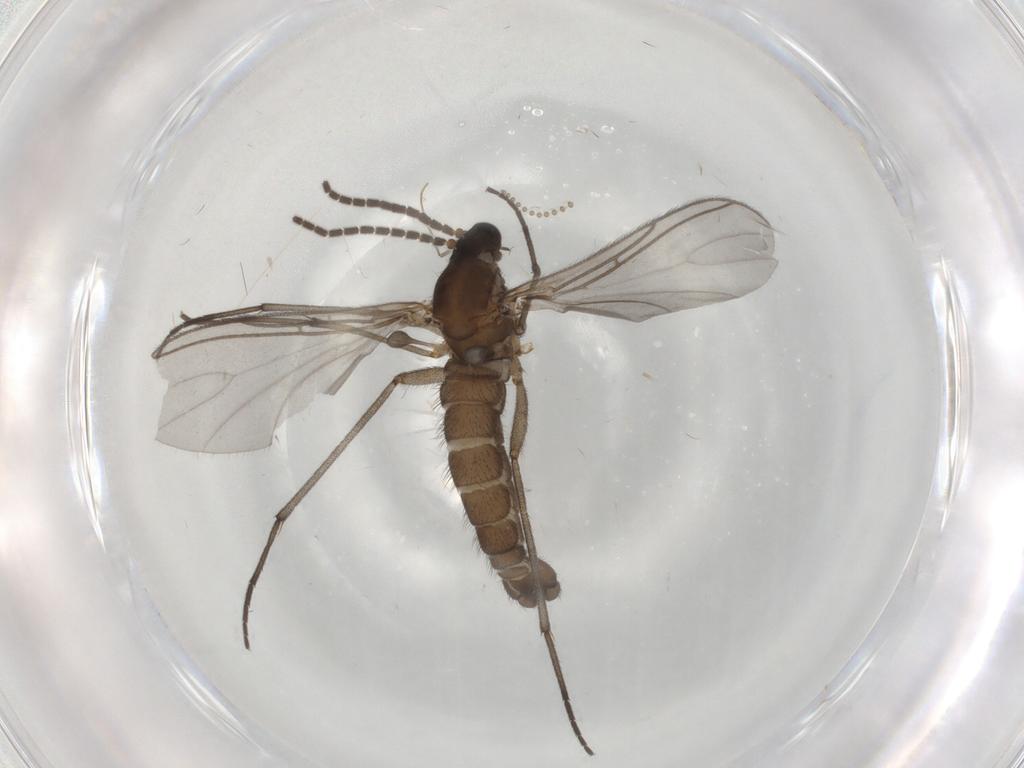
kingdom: Animalia
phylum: Arthropoda
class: Insecta
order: Diptera
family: Sciaridae
